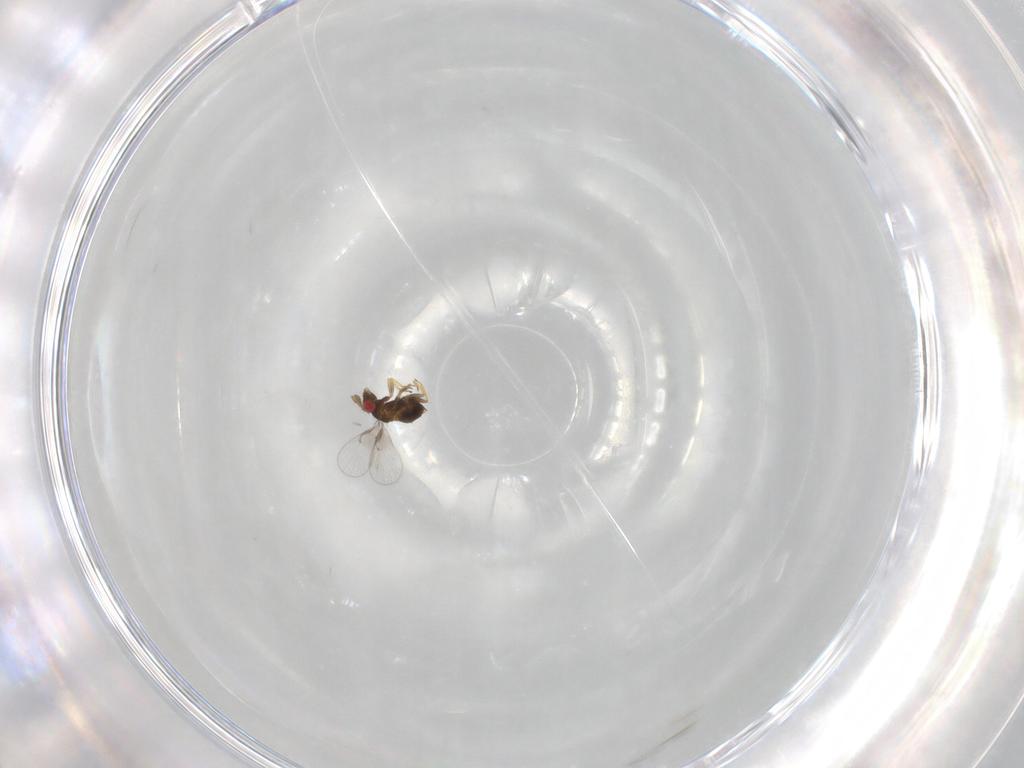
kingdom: Animalia
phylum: Arthropoda
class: Insecta
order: Hymenoptera
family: Trichogrammatidae
